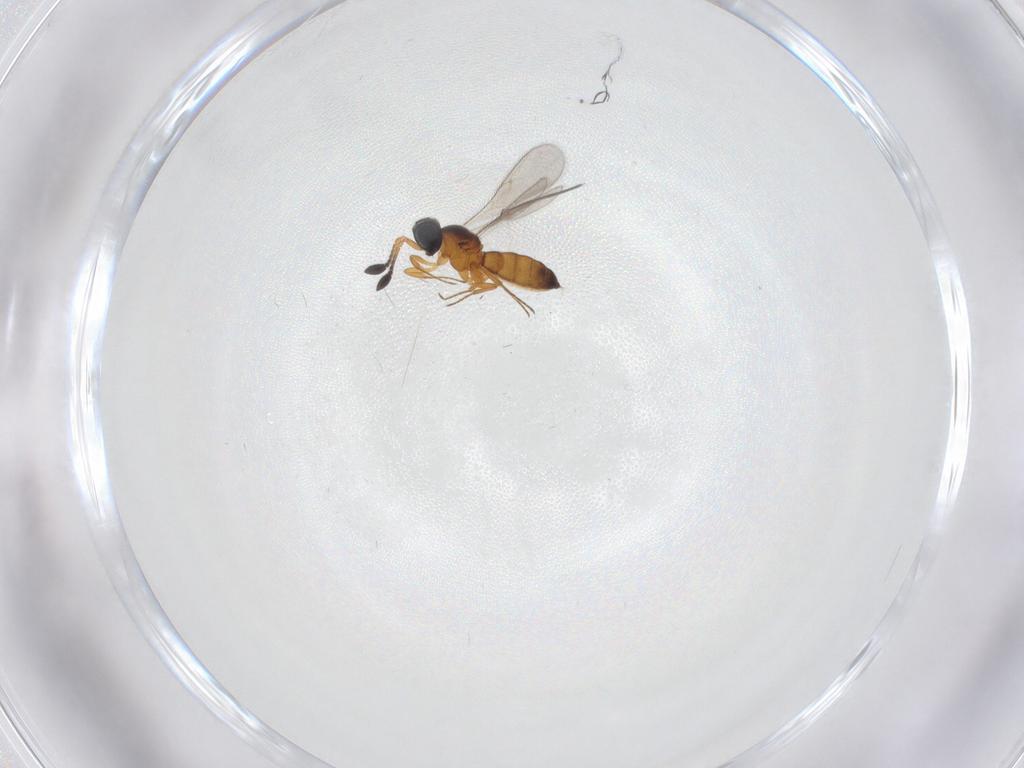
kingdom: Animalia
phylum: Arthropoda
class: Insecta
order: Hymenoptera
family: Scelionidae
